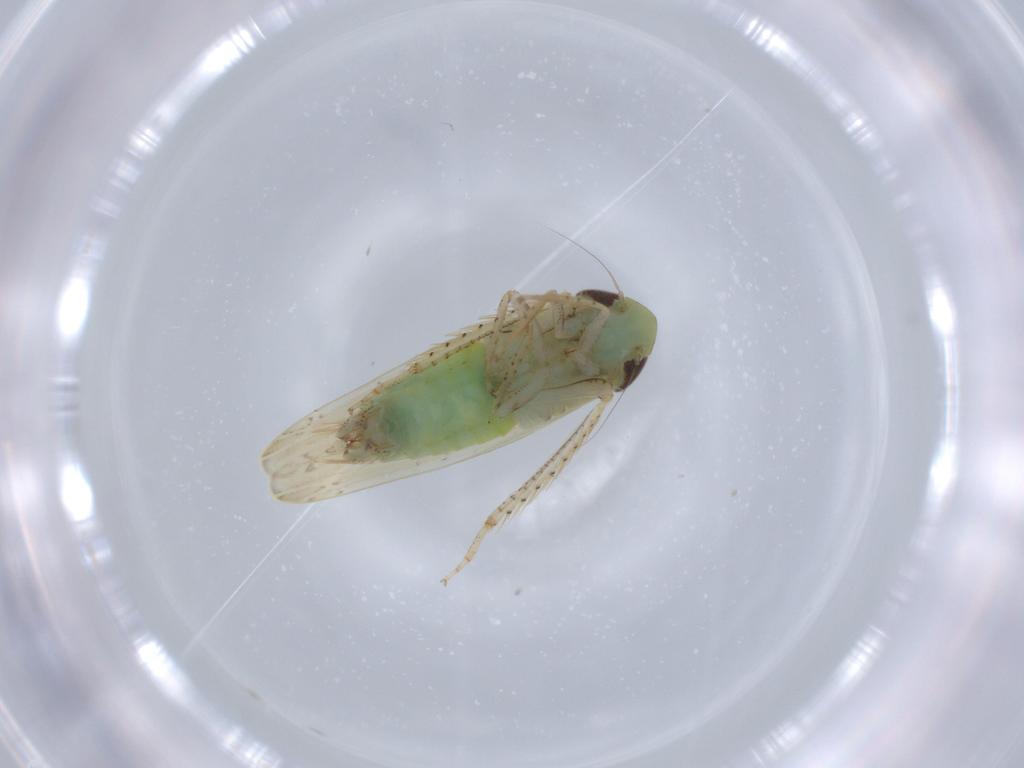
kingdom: Animalia
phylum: Arthropoda
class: Insecta
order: Hemiptera
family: Cicadellidae
